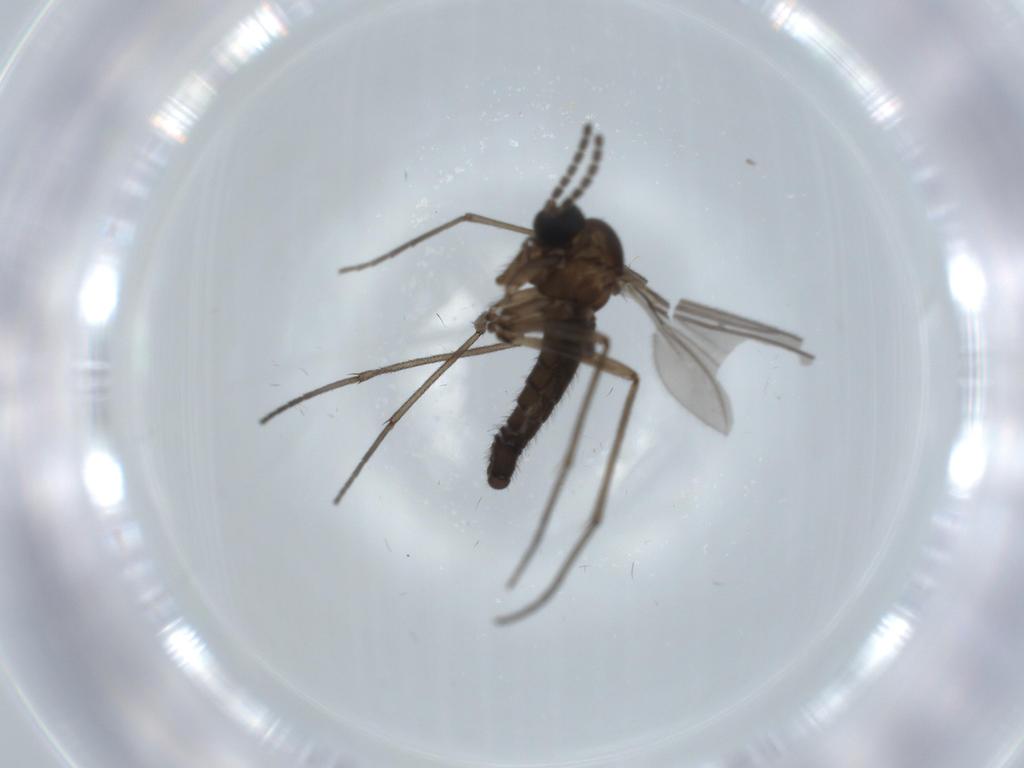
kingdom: Animalia
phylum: Arthropoda
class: Insecta
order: Diptera
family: Sciaridae
